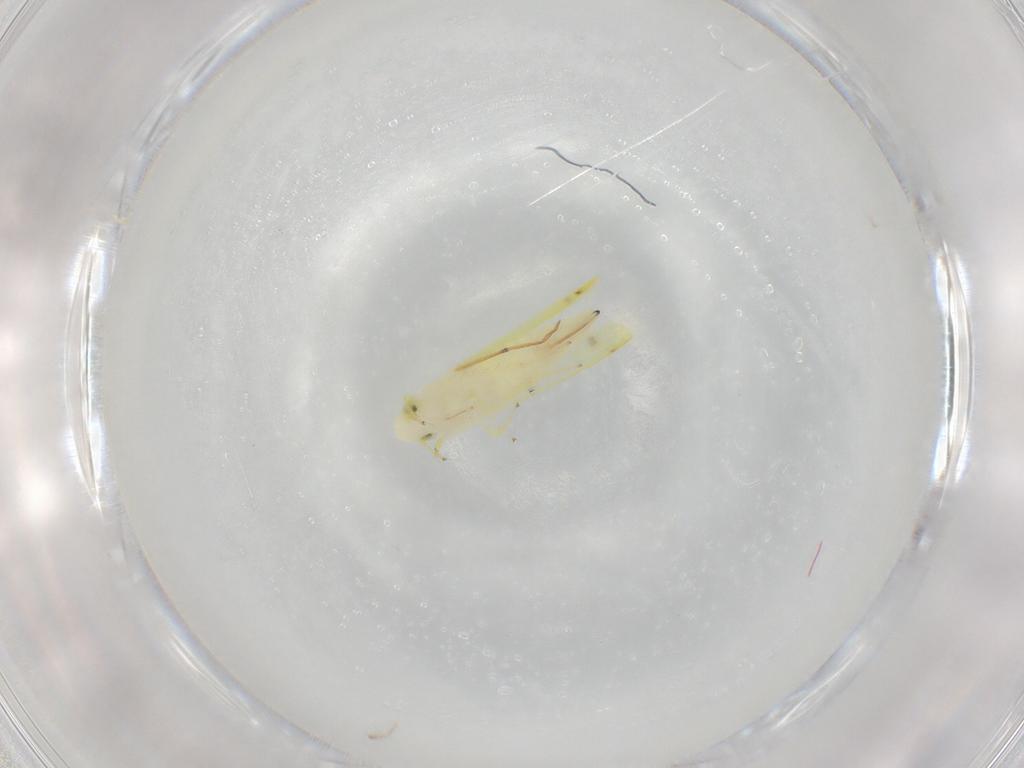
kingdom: Animalia
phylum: Arthropoda
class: Insecta
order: Hemiptera
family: Cicadellidae
